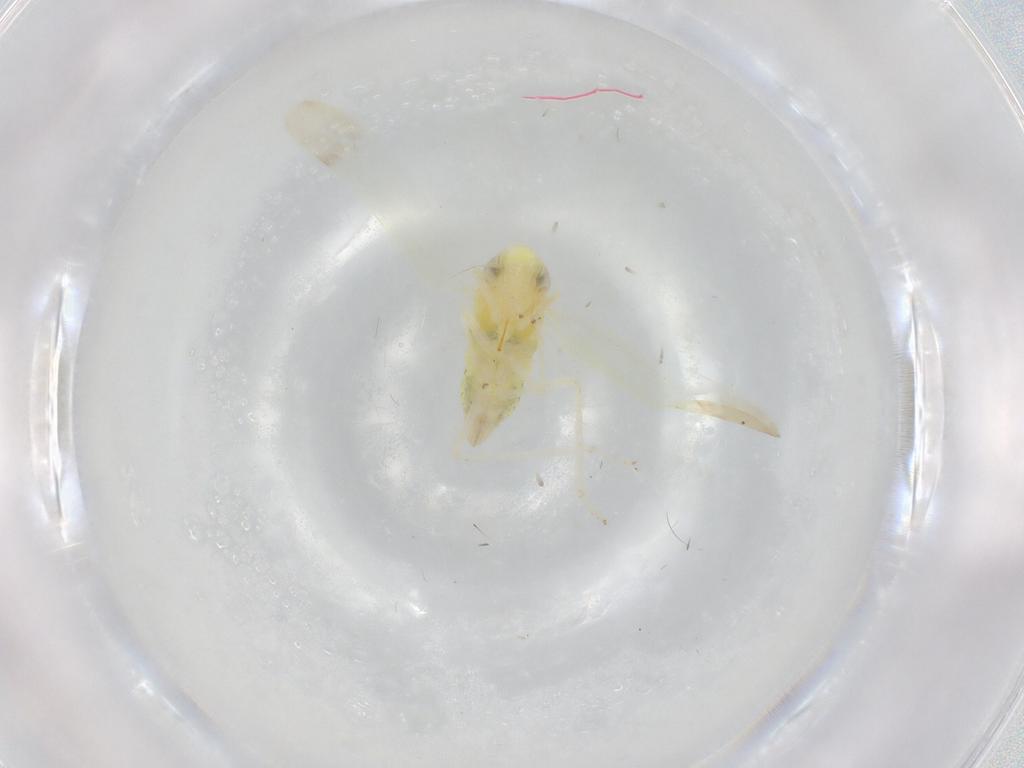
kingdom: Animalia
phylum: Arthropoda
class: Insecta
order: Hemiptera
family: Cicadellidae
